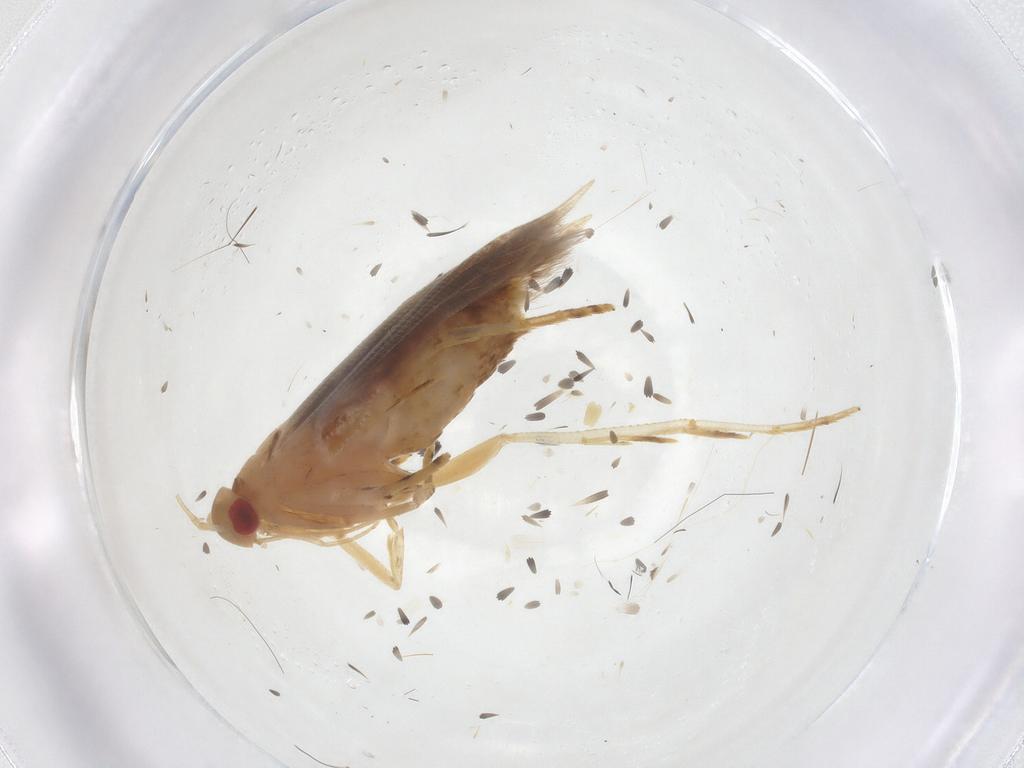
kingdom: Animalia
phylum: Arthropoda
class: Insecta
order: Lepidoptera
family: Cosmopterigidae
